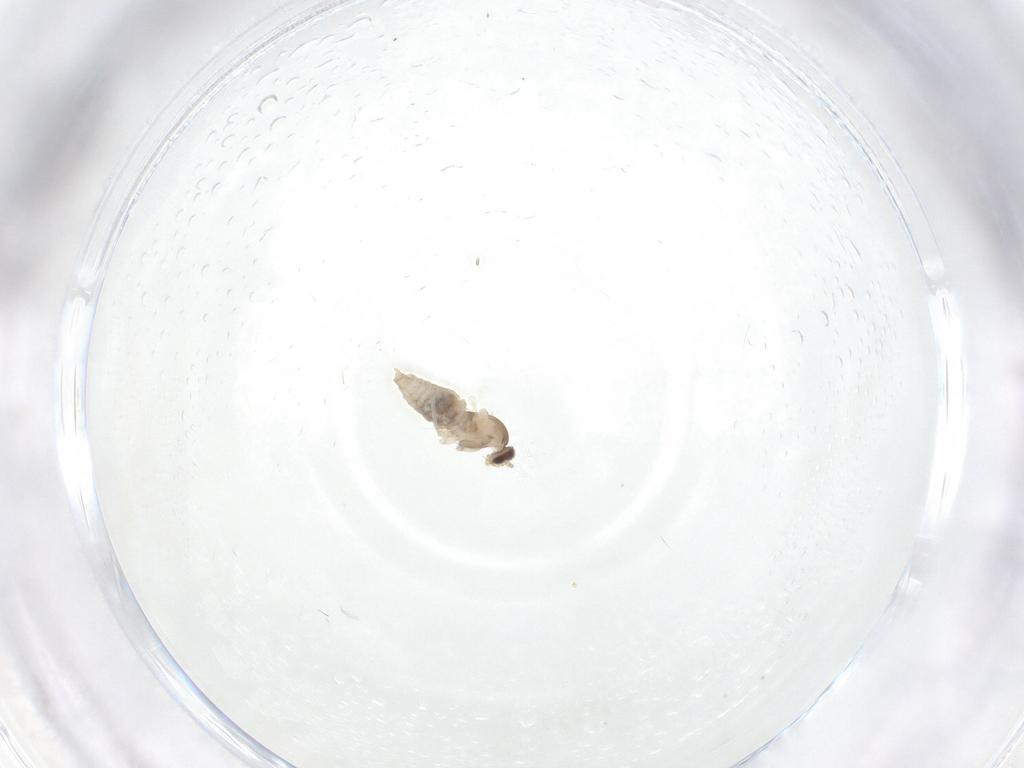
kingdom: Animalia
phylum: Arthropoda
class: Insecta
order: Diptera
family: Cecidomyiidae
